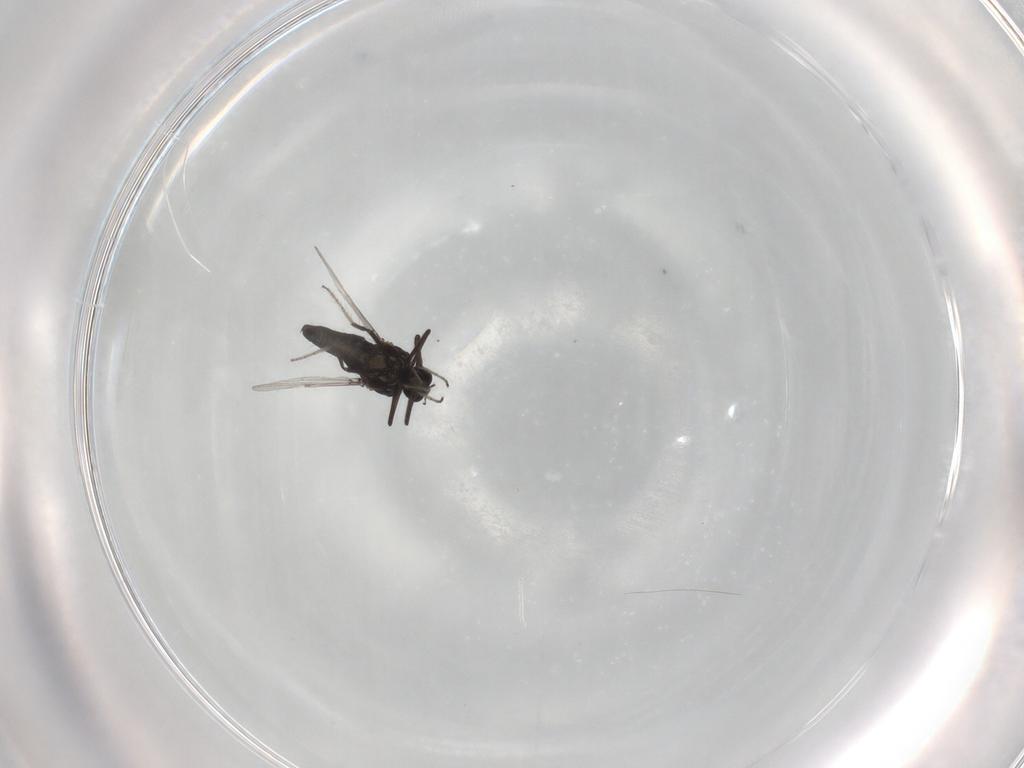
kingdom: Animalia
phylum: Arthropoda
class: Insecta
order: Diptera
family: Ceratopogonidae
